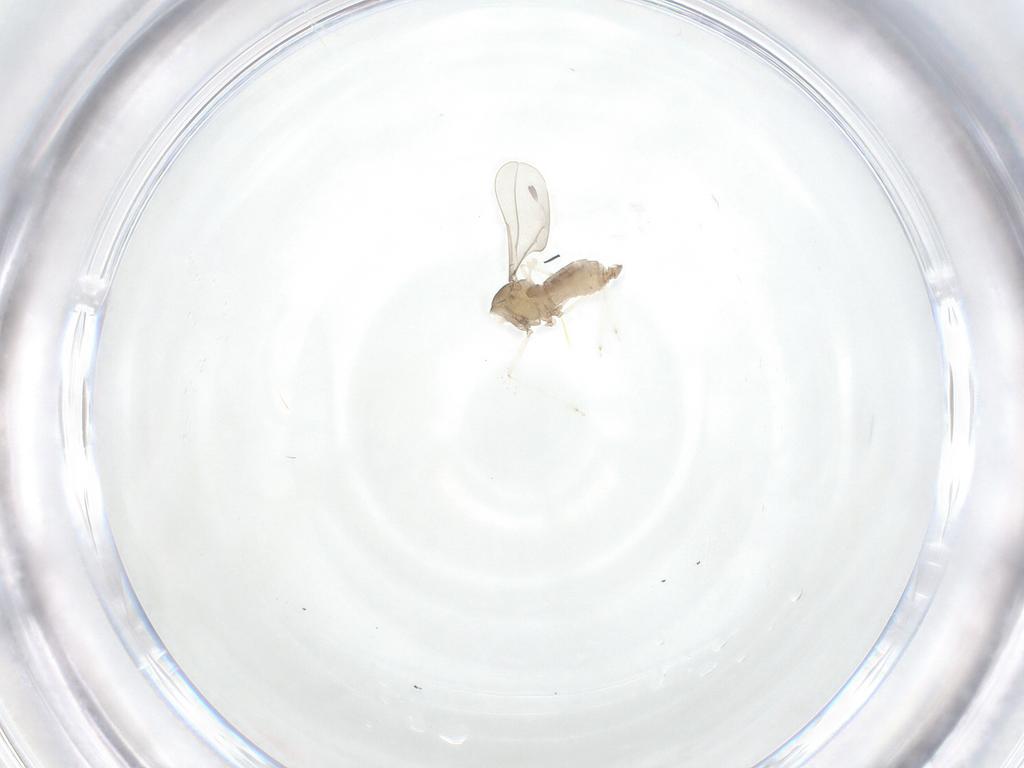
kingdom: Animalia
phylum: Arthropoda
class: Insecta
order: Diptera
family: Cecidomyiidae
